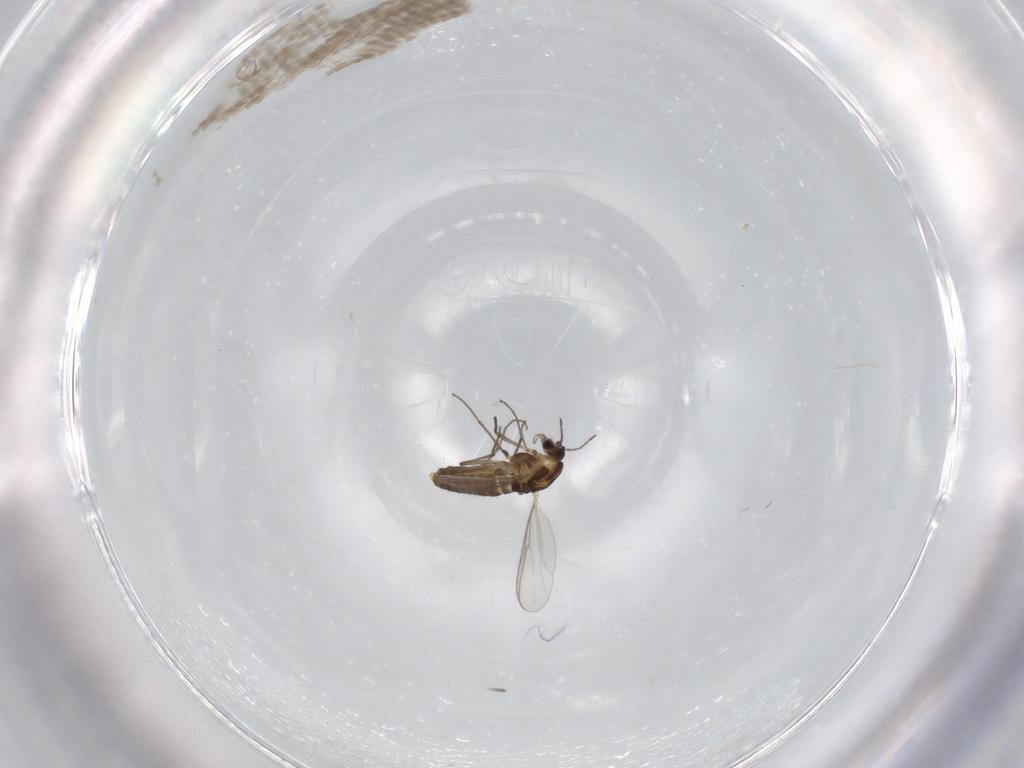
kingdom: Animalia
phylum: Arthropoda
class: Insecta
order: Diptera
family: Chironomidae
